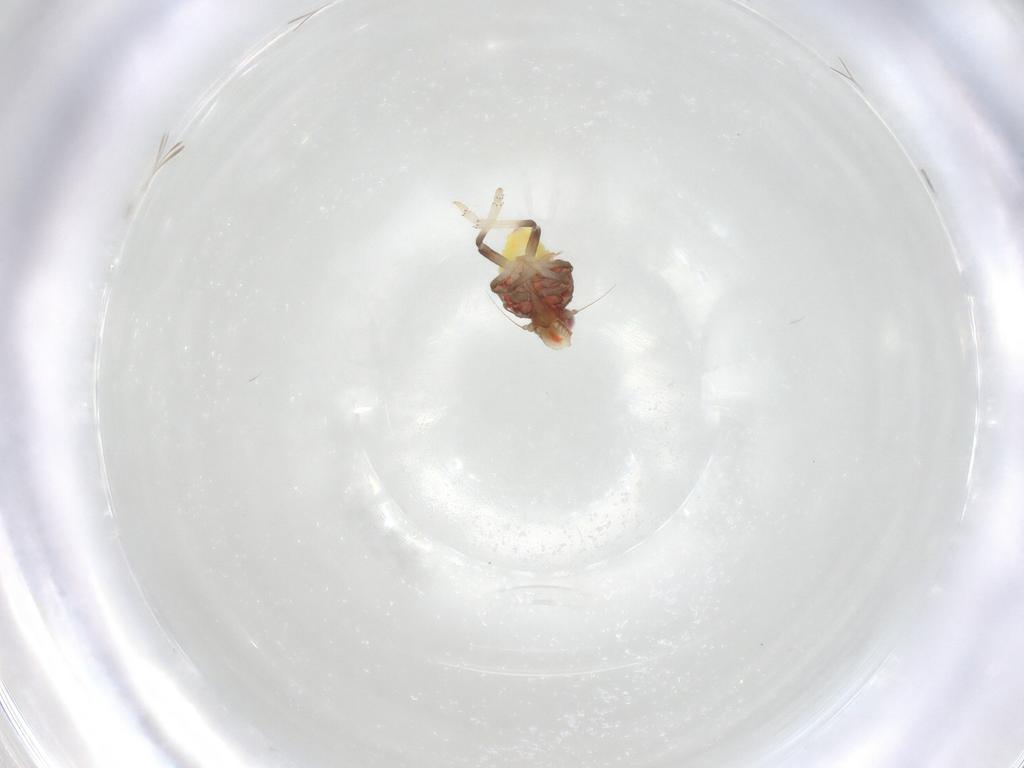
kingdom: Animalia
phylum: Arthropoda
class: Insecta
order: Hemiptera
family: Tropiduchidae
